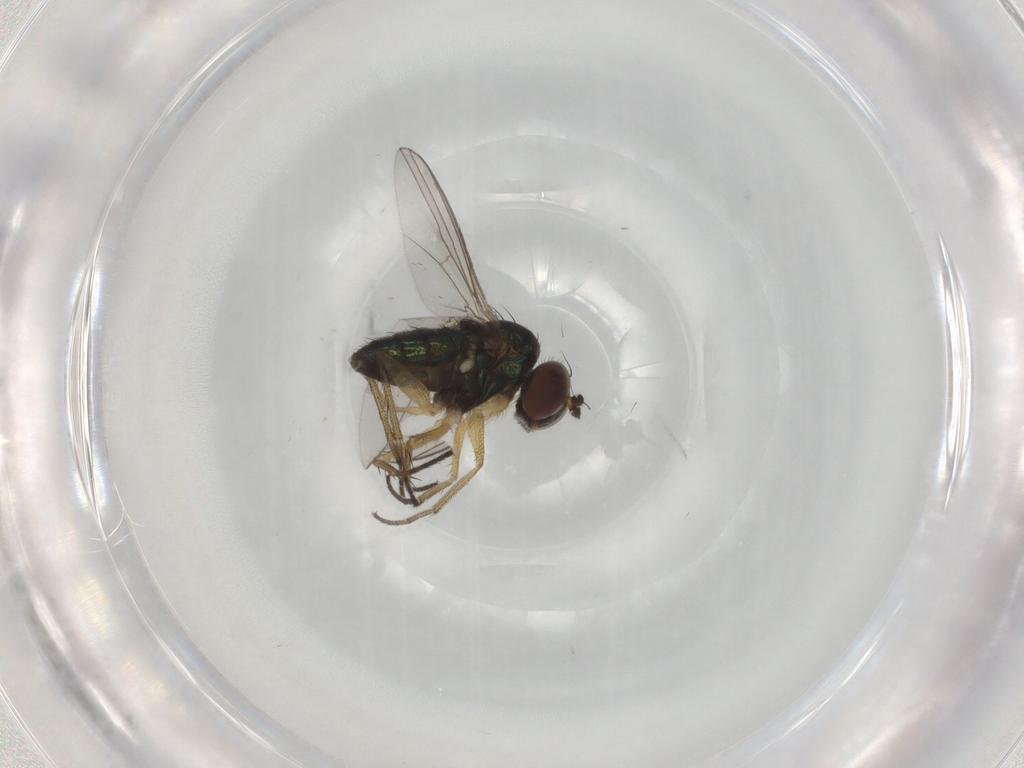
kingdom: Animalia
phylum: Arthropoda
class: Insecta
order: Diptera
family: Dolichopodidae
